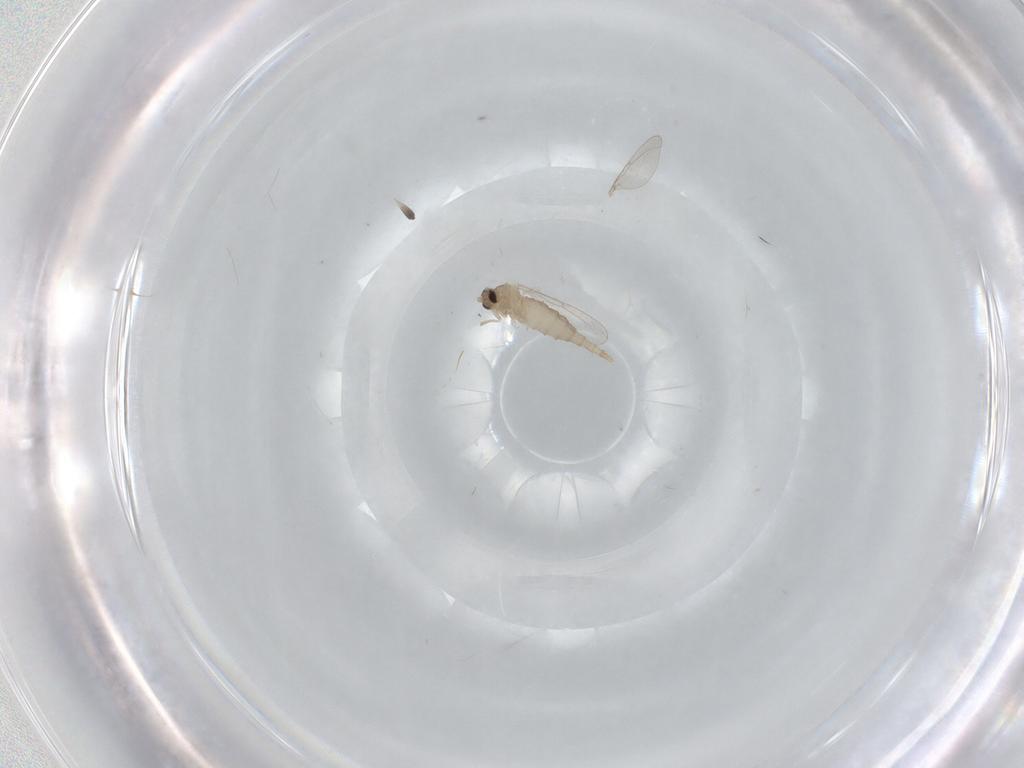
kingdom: Animalia
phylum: Arthropoda
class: Insecta
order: Diptera
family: Cecidomyiidae
